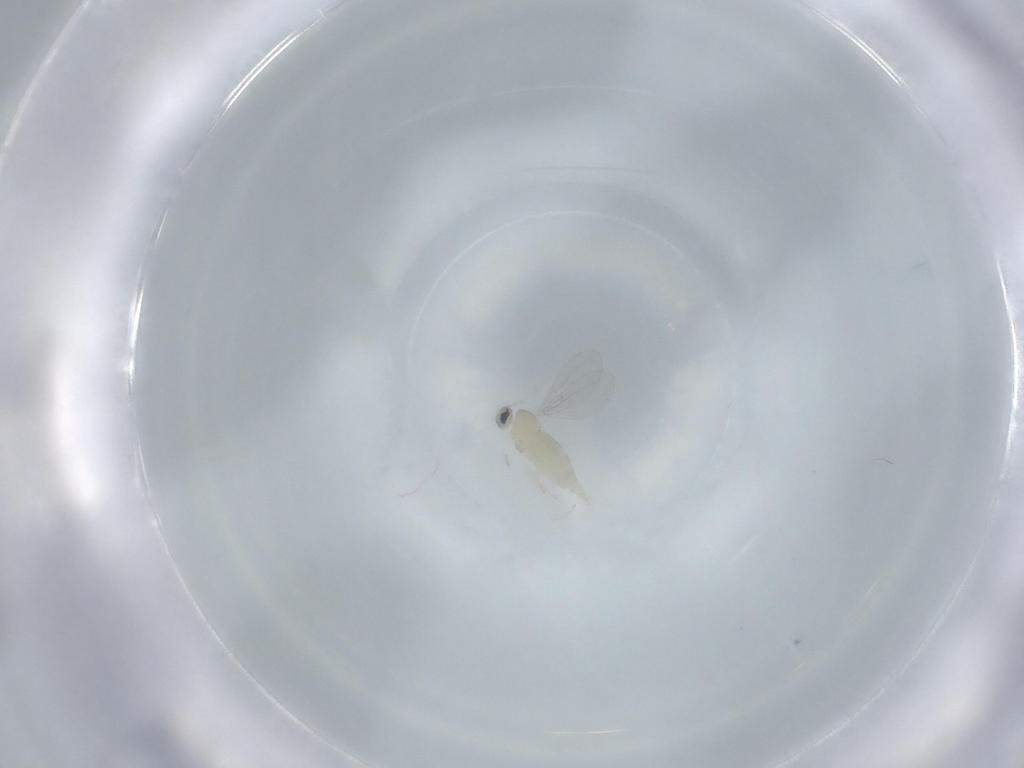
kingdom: Animalia
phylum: Arthropoda
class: Insecta
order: Diptera
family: Cecidomyiidae
